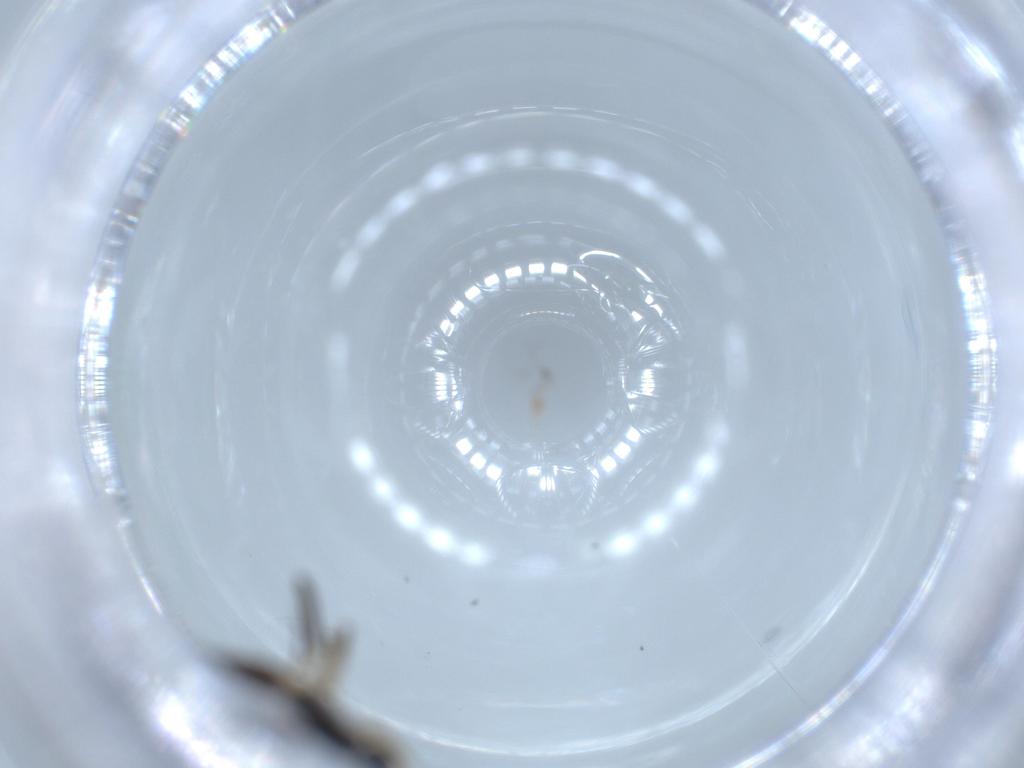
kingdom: Animalia
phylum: Arthropoda
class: Insecta
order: Diptera
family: Hybotidae
